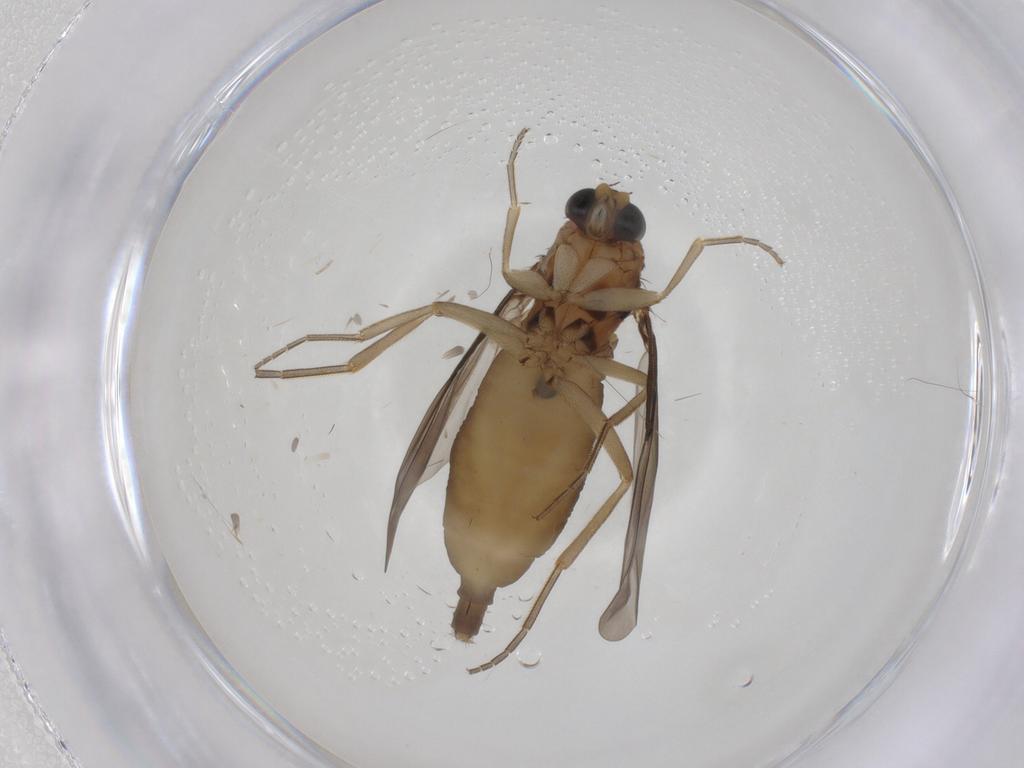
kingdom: Animalia
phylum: Arthropoda
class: Insecta
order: Diptera
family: Phoridae
